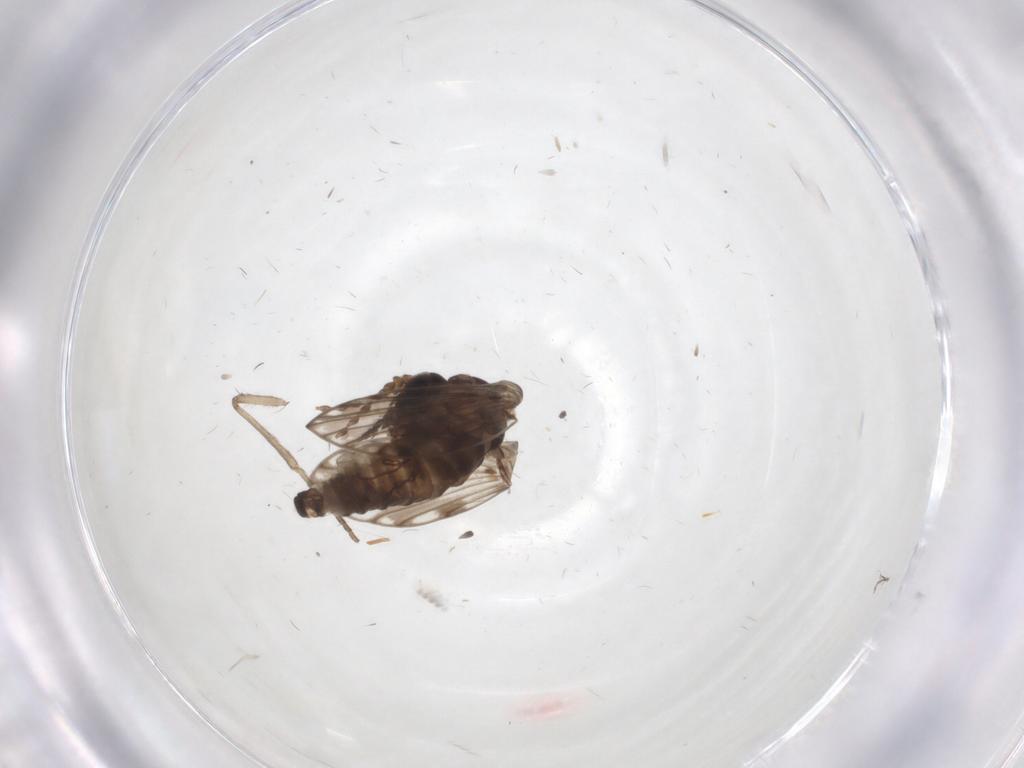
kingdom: Animalia
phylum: Arthropoda
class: Insecta
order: Diptera
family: Psychodidae
